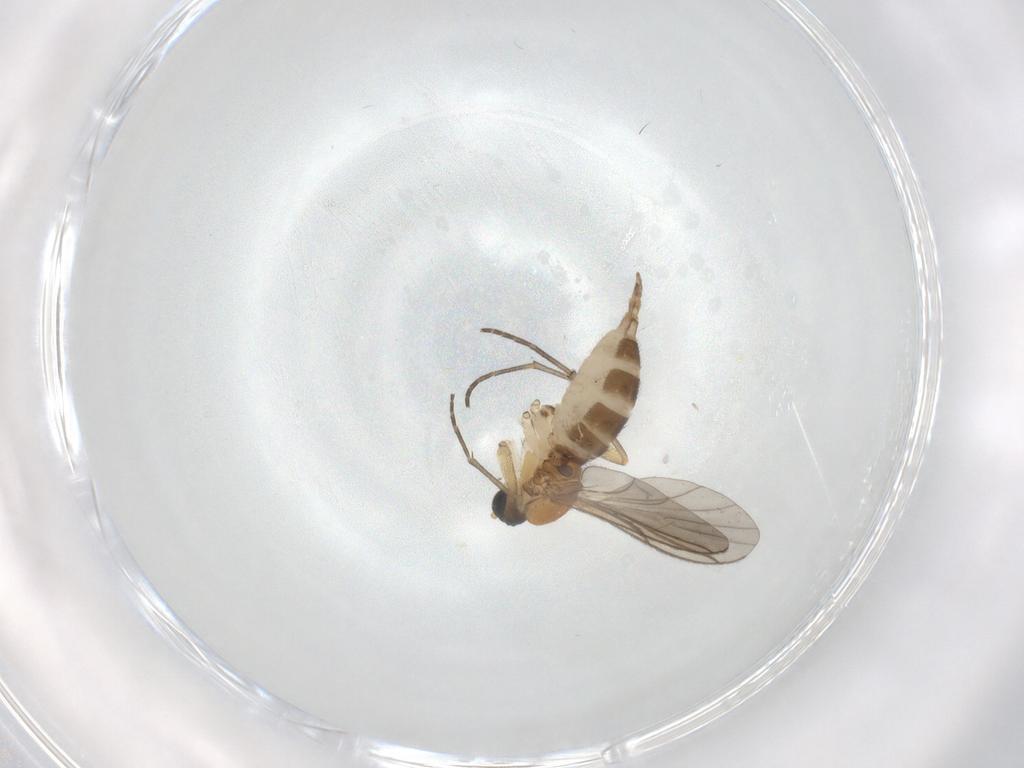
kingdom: Animalia
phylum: Arthropoda
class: Insecta
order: Diptera
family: Sciaridae
